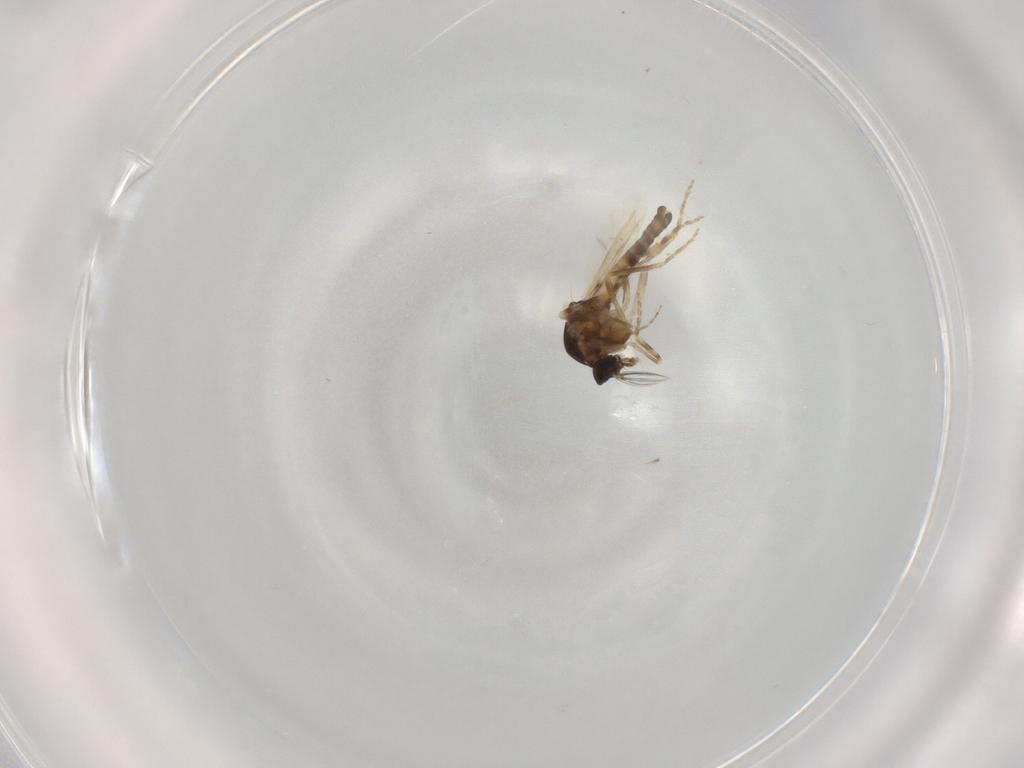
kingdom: Animalia
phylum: Arthropoda
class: Insecta
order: Diptera
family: Ceratopogonidae
